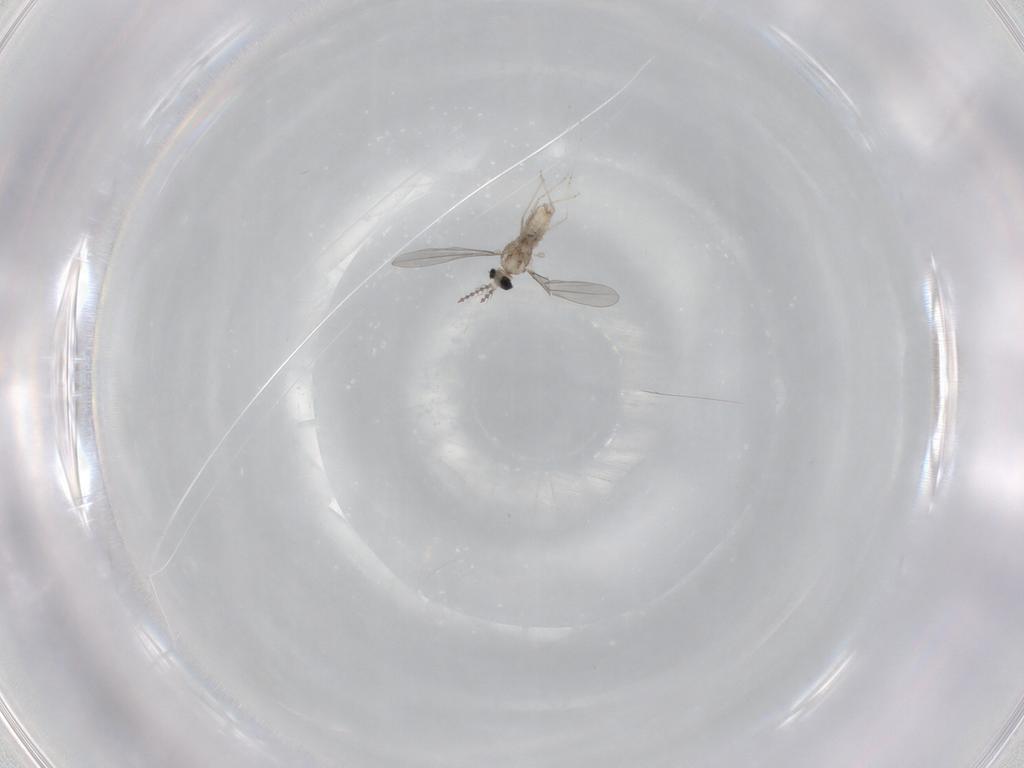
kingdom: Animalia
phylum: Arthropoda
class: Insecta
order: Diptera
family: Cecidomyiidae
